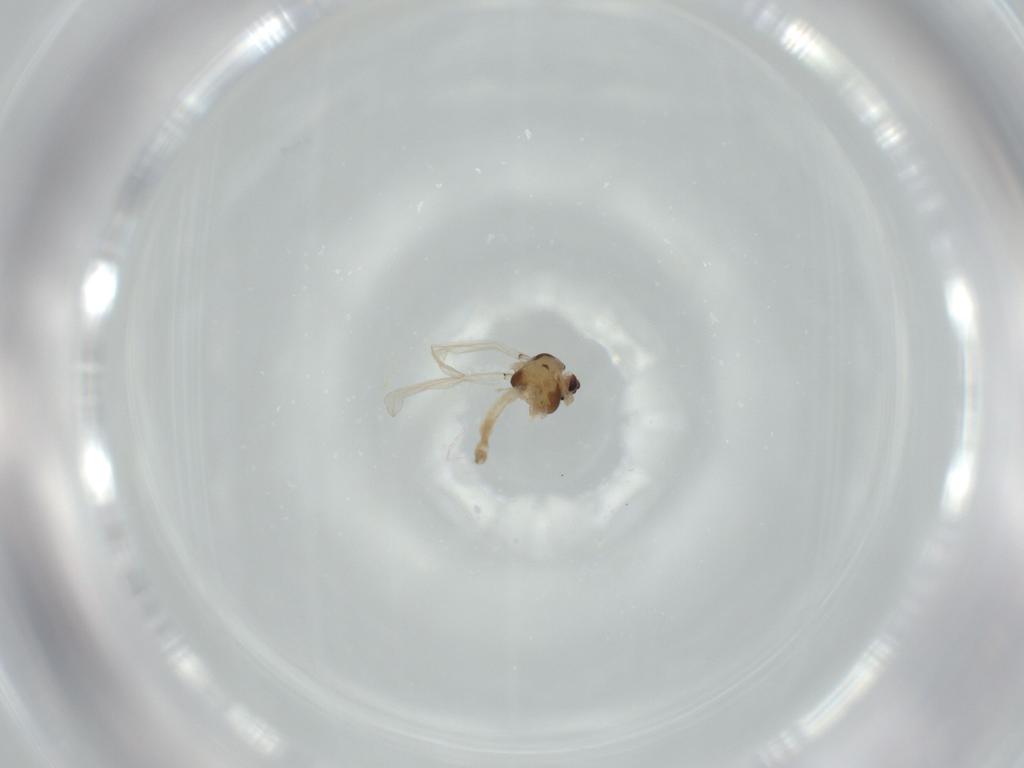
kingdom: Animalia
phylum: Arthropoda
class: Insecta
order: Diptera
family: Chironomidae
